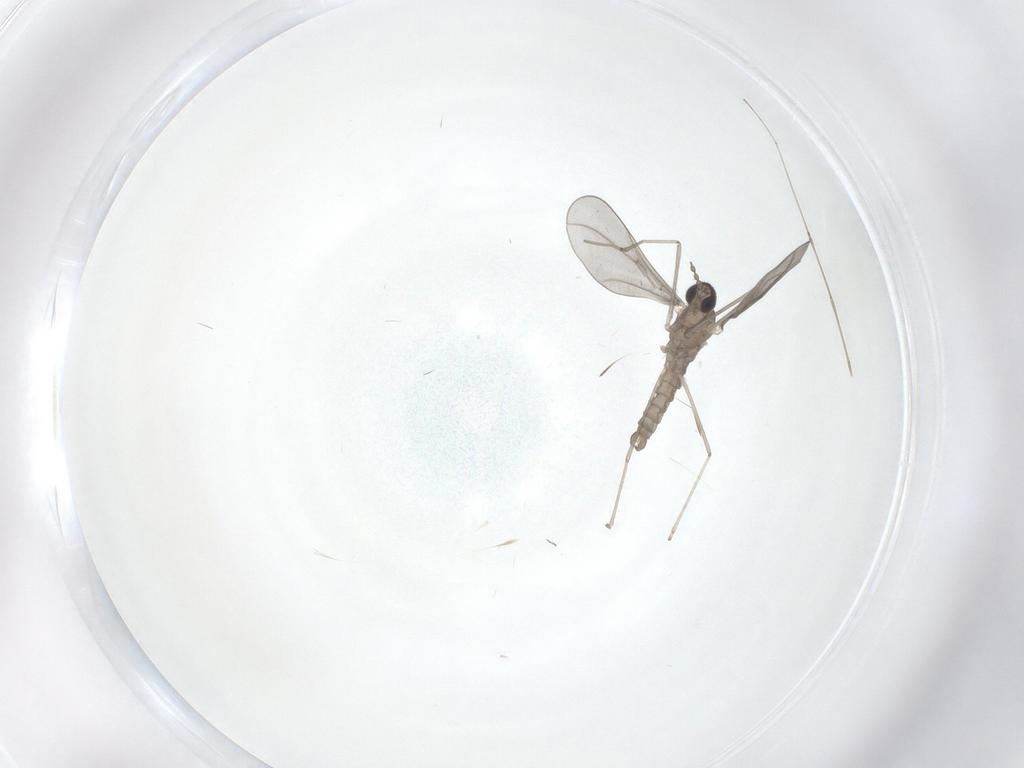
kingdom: Animalia
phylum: Arthropoda
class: Insecta
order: Diptera
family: Cecidomyiidae
